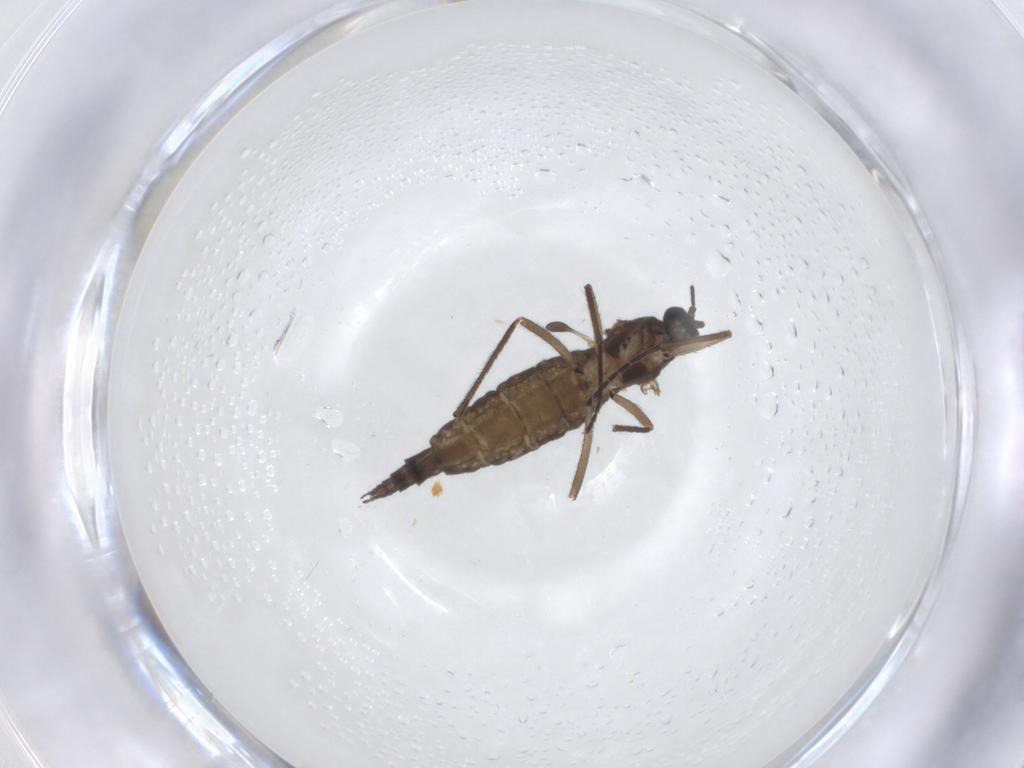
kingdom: Animalia
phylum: Arthropoda
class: Insecta
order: Diptera
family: Sciaridae
